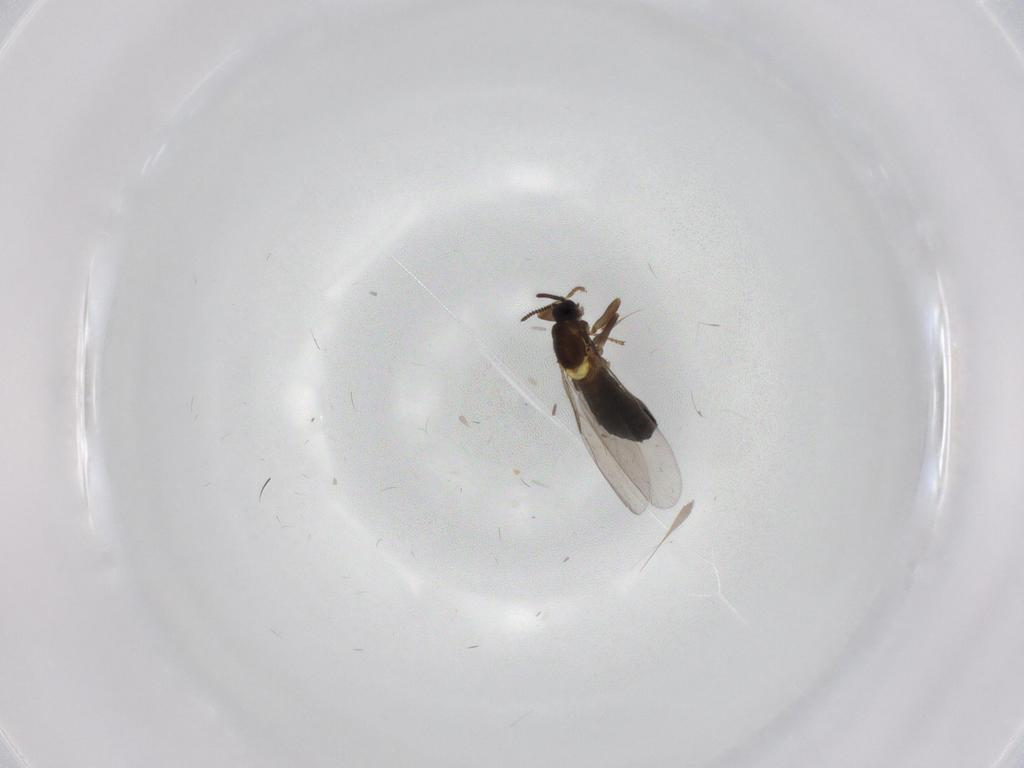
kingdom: Animalia
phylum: Arthropoda
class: Insecta
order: Diptera
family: Scatopsidae
